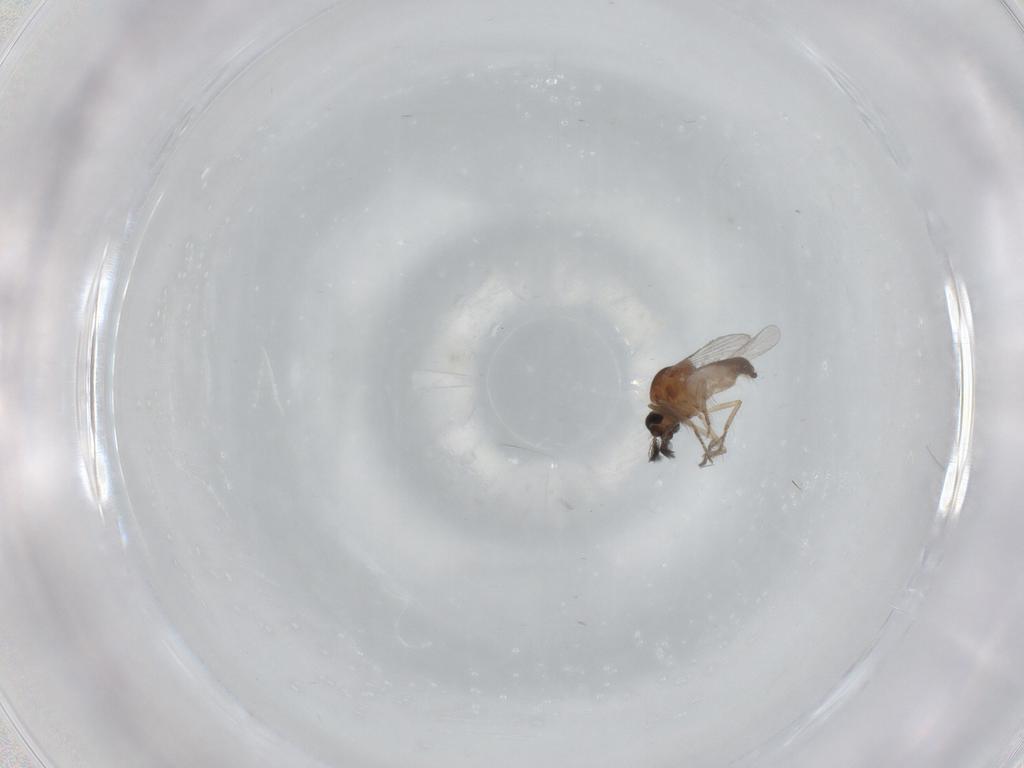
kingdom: Animalia
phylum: Arthropoda
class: Insecta
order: Diptera
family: Ceratopogonidae
